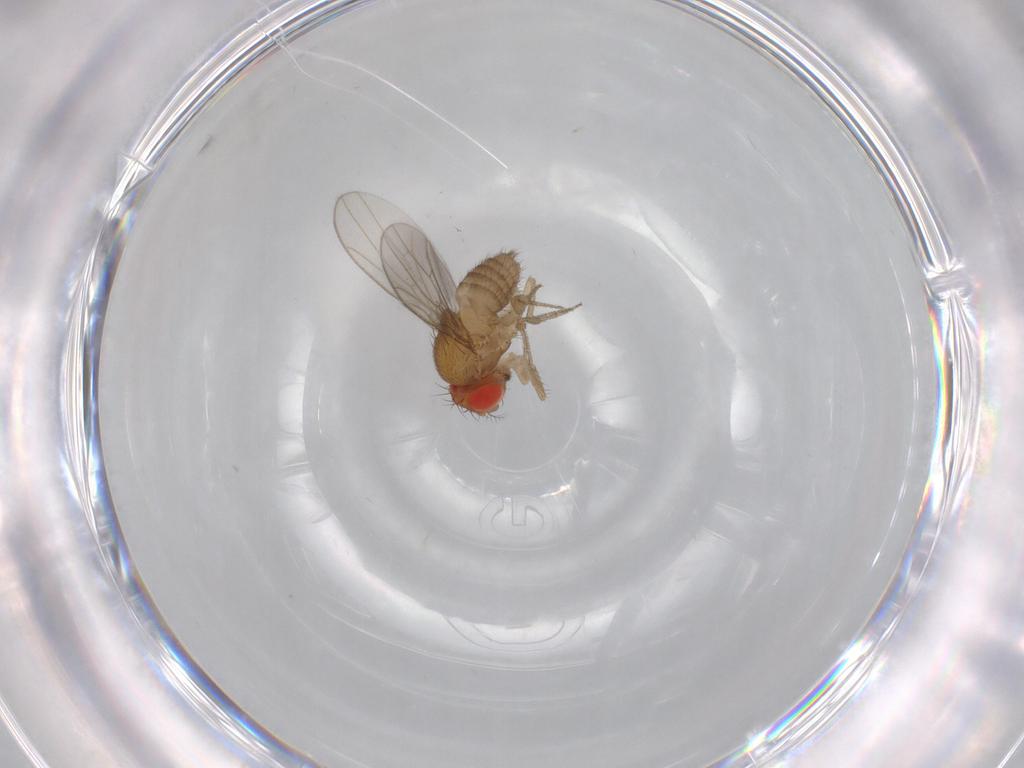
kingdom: Animalia
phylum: Arthropoda
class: Insecta
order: Diptera
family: Drosophilidae
